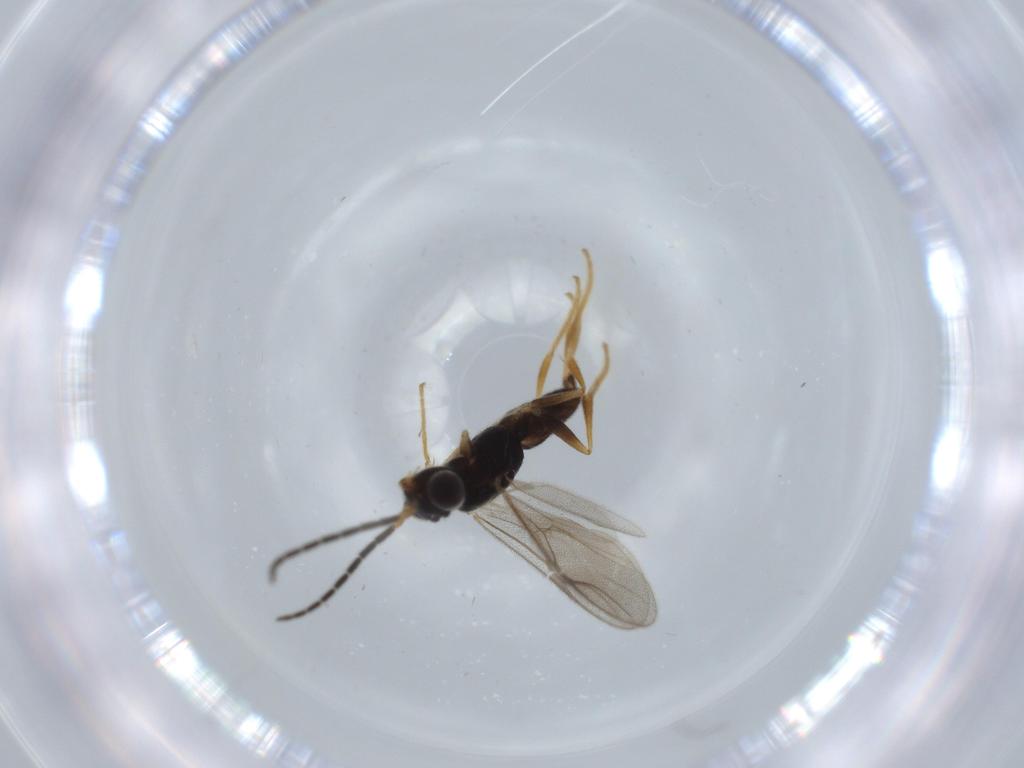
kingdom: Animalia
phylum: Arthropoda
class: Insecta
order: Hymenoptera
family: Dryinidae
